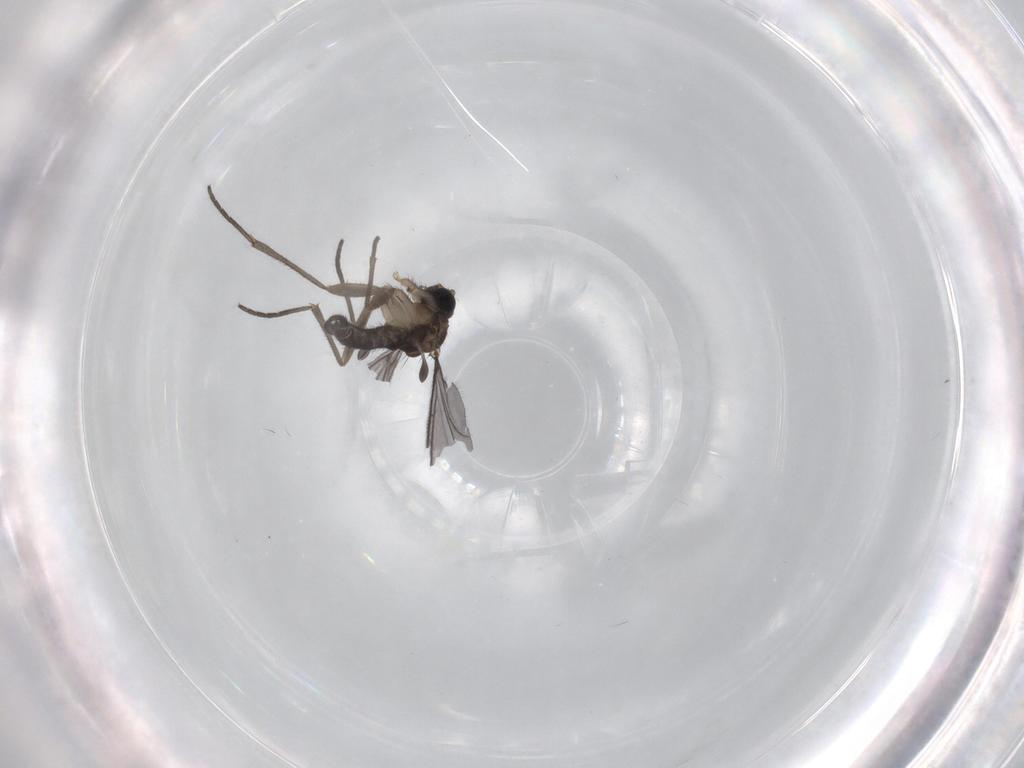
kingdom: Animalia
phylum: Arthropoda
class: Insecta
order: Diptera
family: Sciaridae
